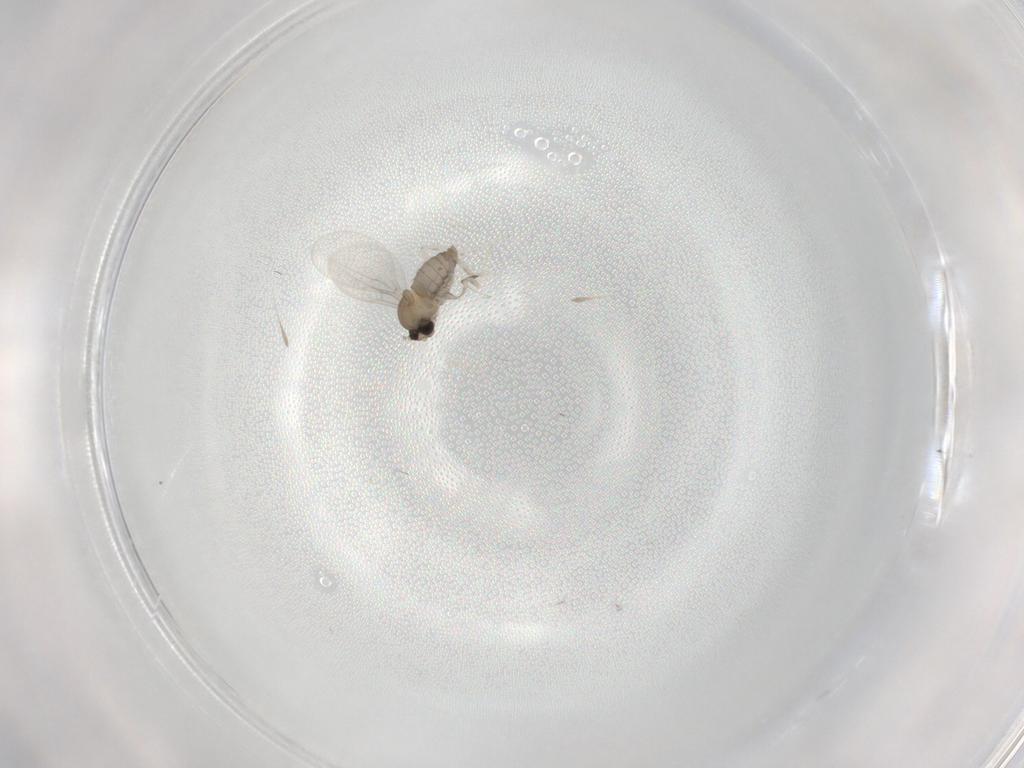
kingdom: Animalia
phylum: Arthropoda
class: Insecta
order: Diptera
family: Cecidomyiidae
